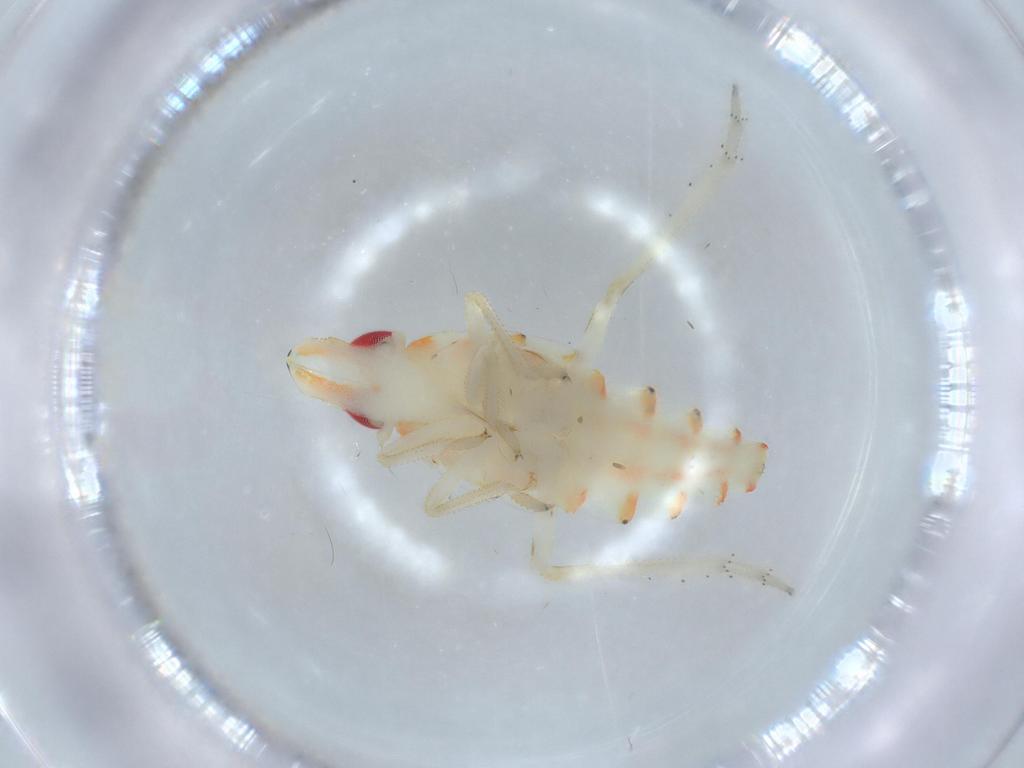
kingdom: Animalia
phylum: Arthropoda
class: Insecta
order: Hemiptera
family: Tropiduchidae
